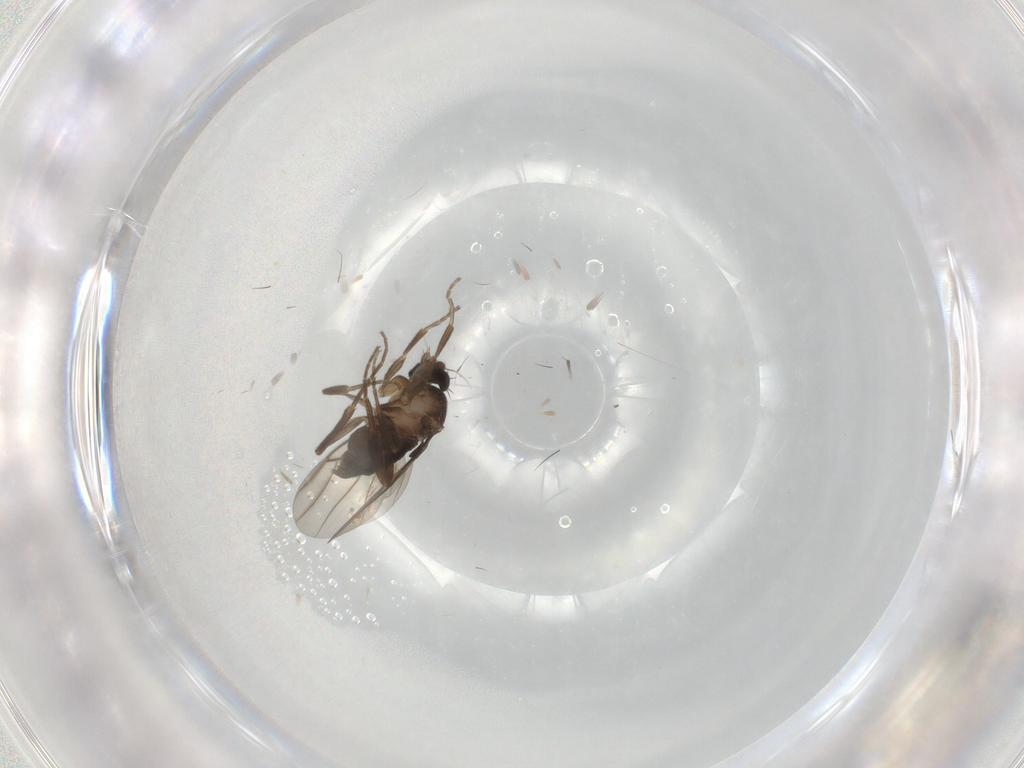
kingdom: Animalia
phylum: Arthropoda
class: Insecta
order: Diptera
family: Phoridae
